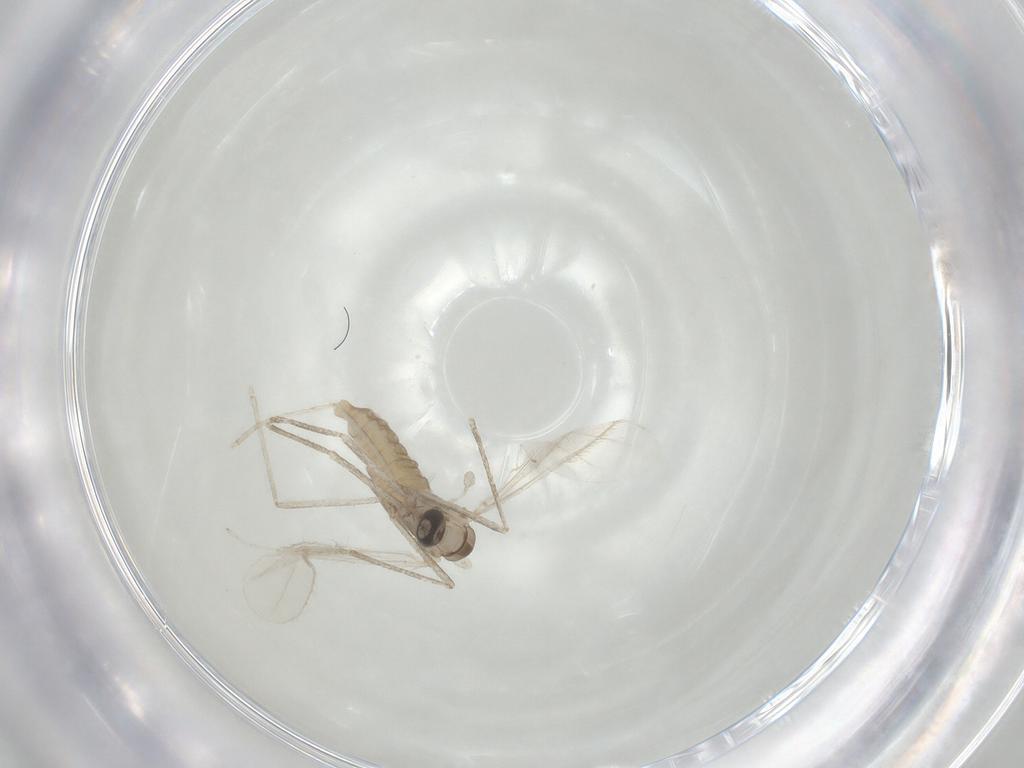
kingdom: Animalia
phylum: Arthropoda
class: Insecta
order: Diptera
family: Cecidomyiidae
